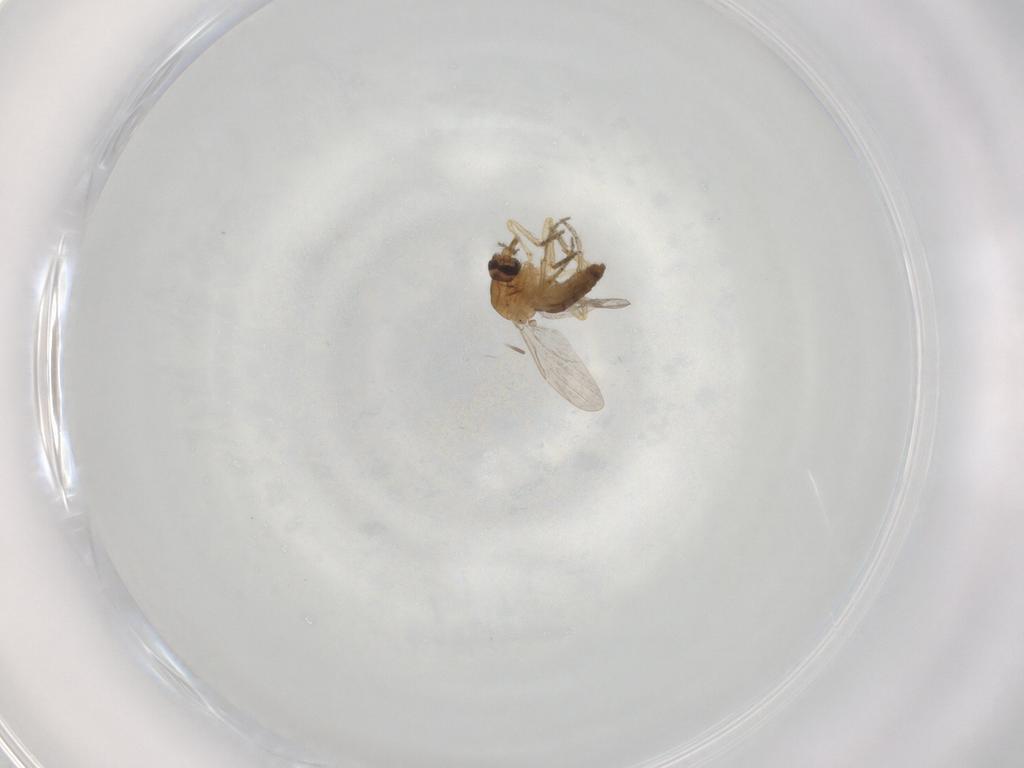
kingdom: Animalia
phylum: Arthropoda
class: Insecta
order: Diptera
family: Ceratopogonidae
